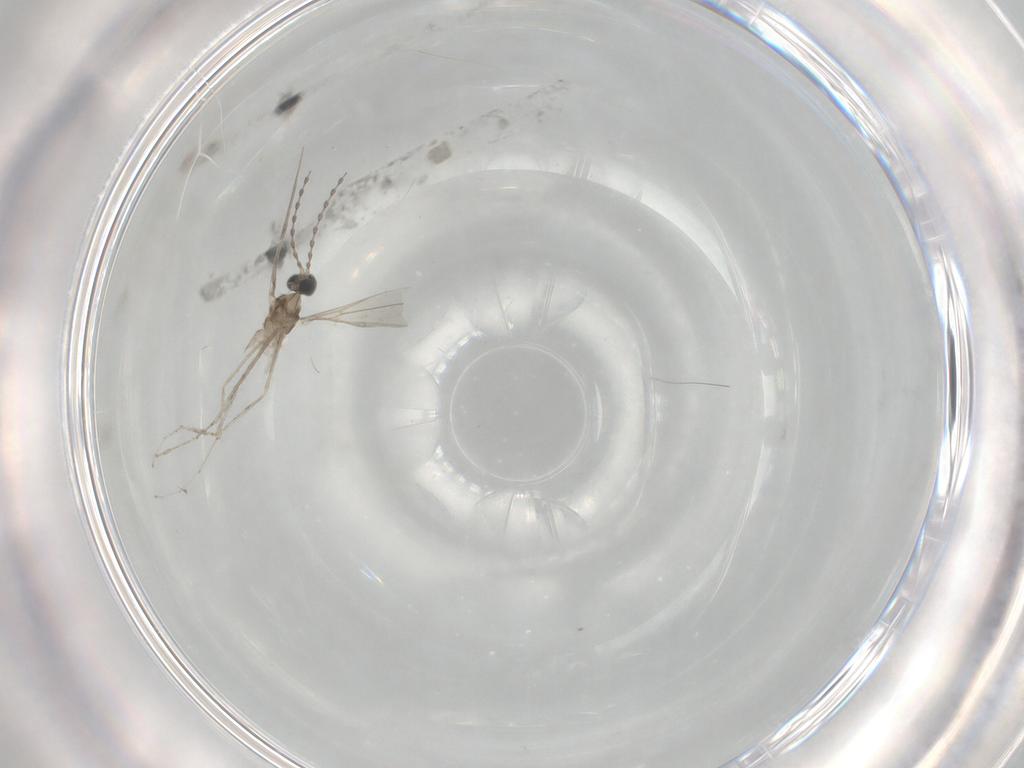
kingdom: Animalia
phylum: Arthropoda
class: Insecta
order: Diptera
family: Cecidomyiidae
